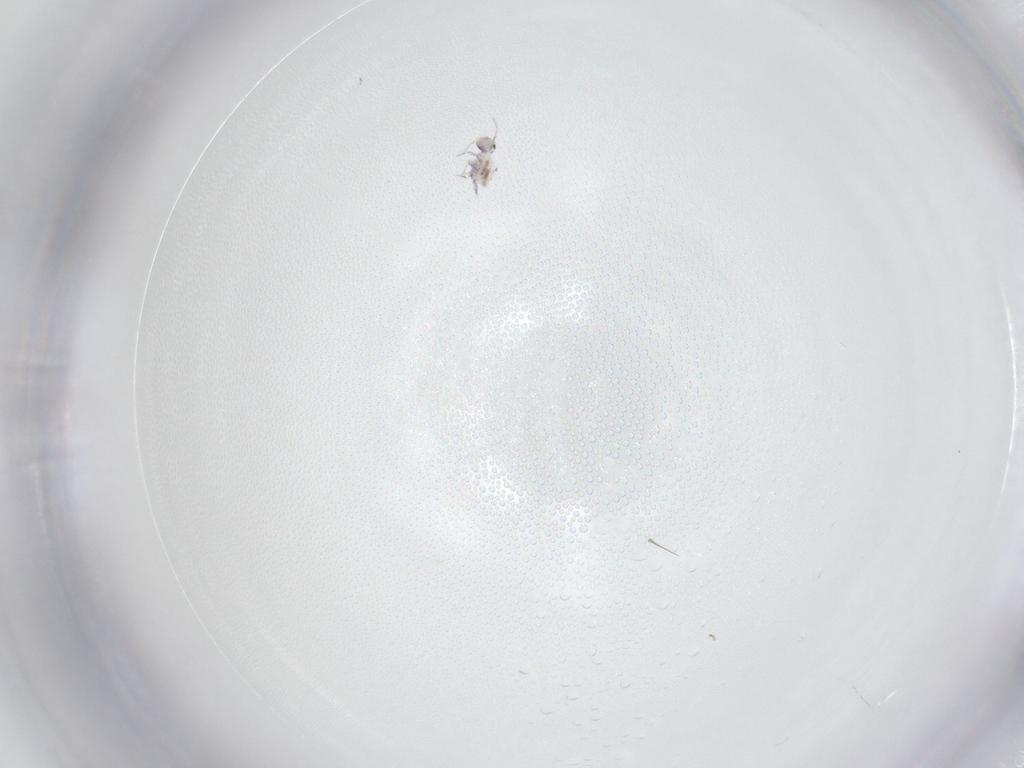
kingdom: Animalia
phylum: Arthropoda
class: Collembola
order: Symphypleona
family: Katiannidae
